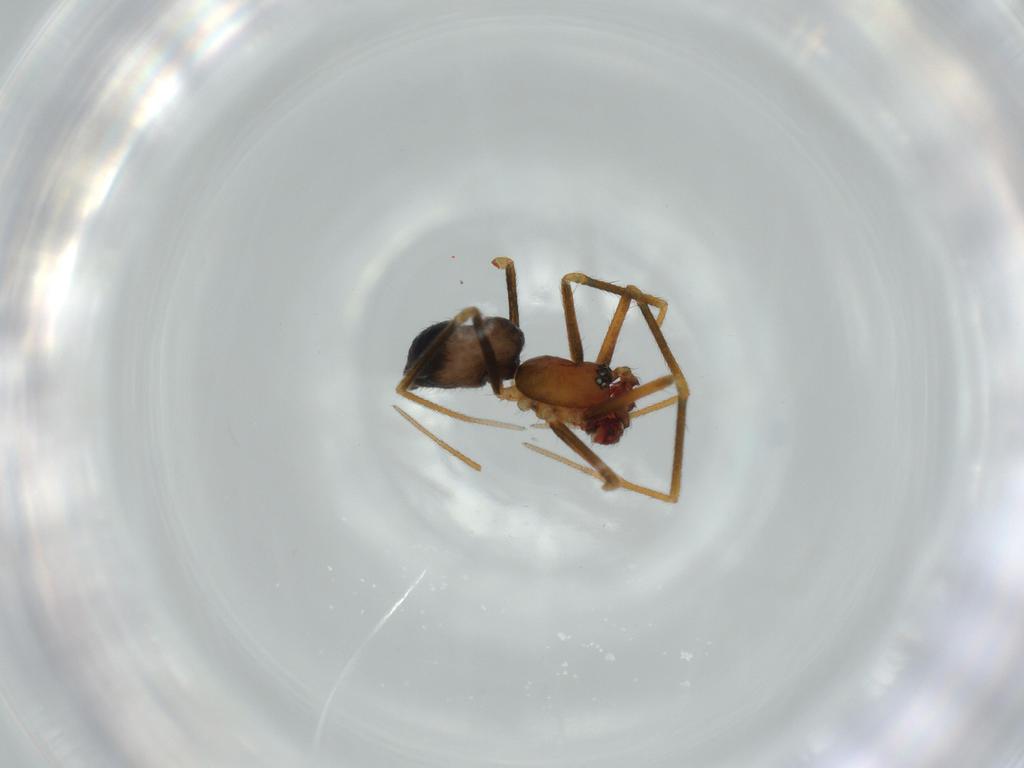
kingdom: Animalia
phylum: Arthropoda
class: Arachnida
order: Araneae
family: Linyphiidae
